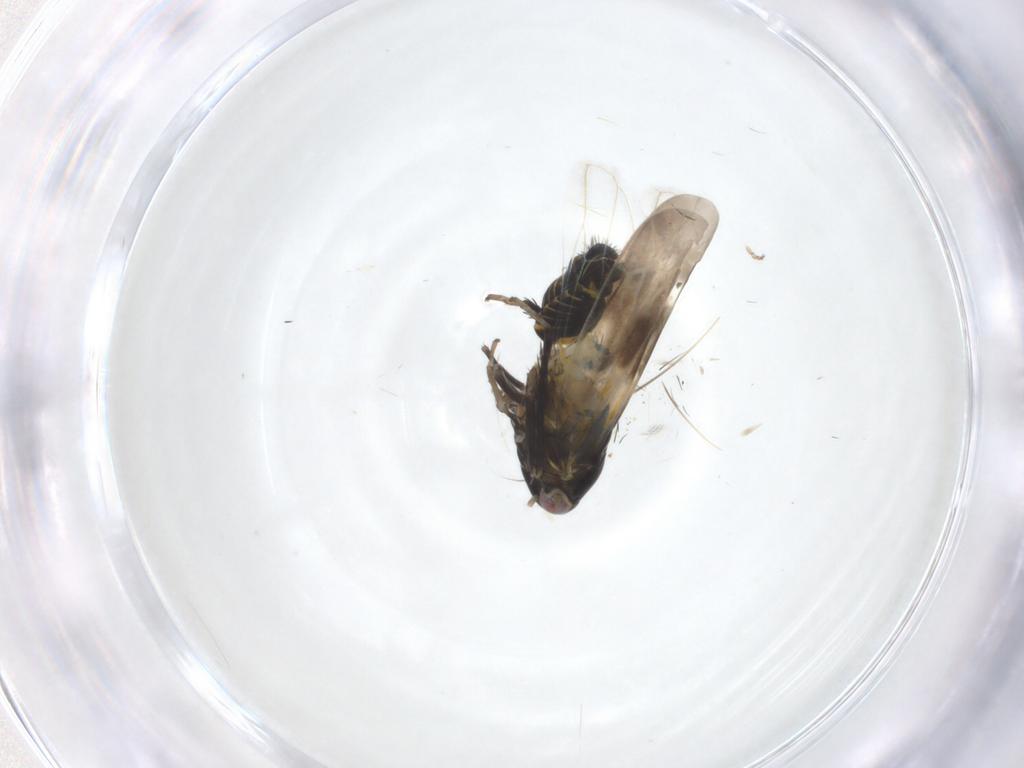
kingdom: Animalia
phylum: Arthropoda
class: Insecta
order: Hemiptera
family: Cicadellidae
